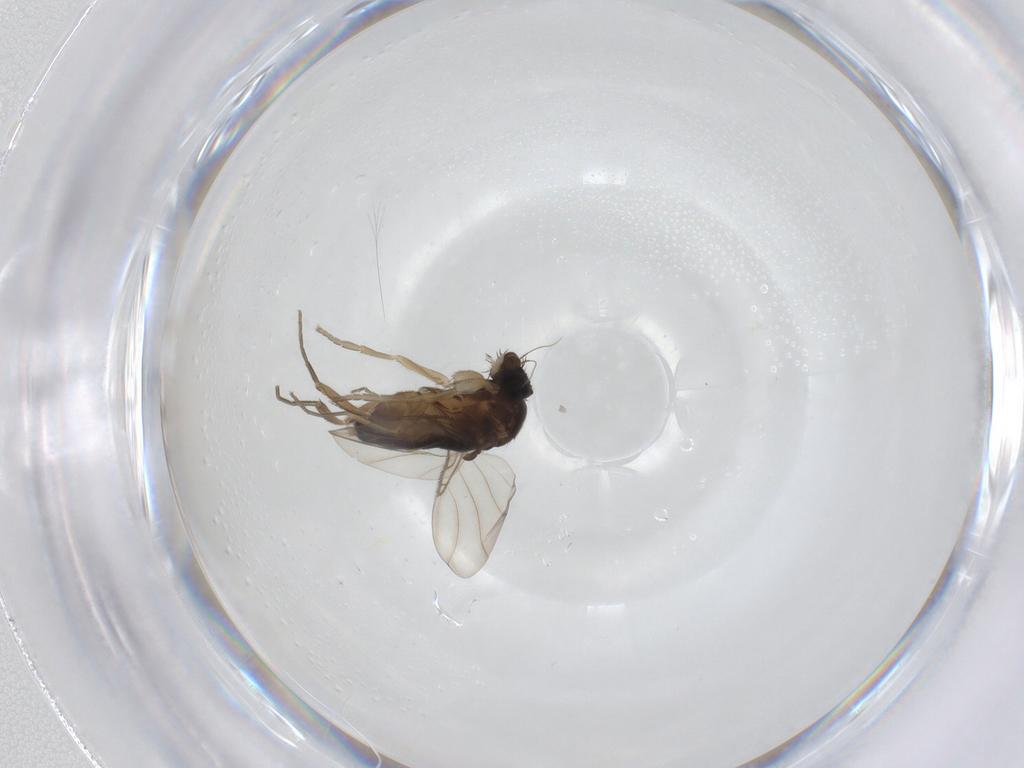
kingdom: Animalia
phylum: Arthropoda
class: Insecta
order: Diptera
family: Phoridae
